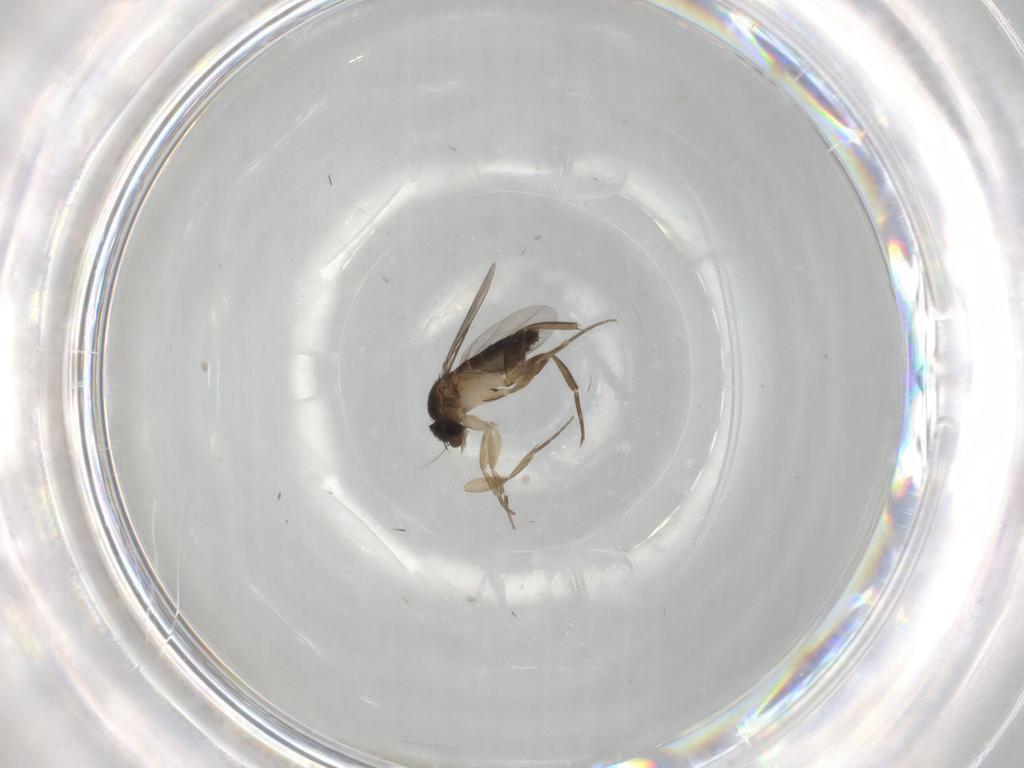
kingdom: Animalia
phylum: Arthropoda
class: Insecta
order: Diptera
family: Phoridae
